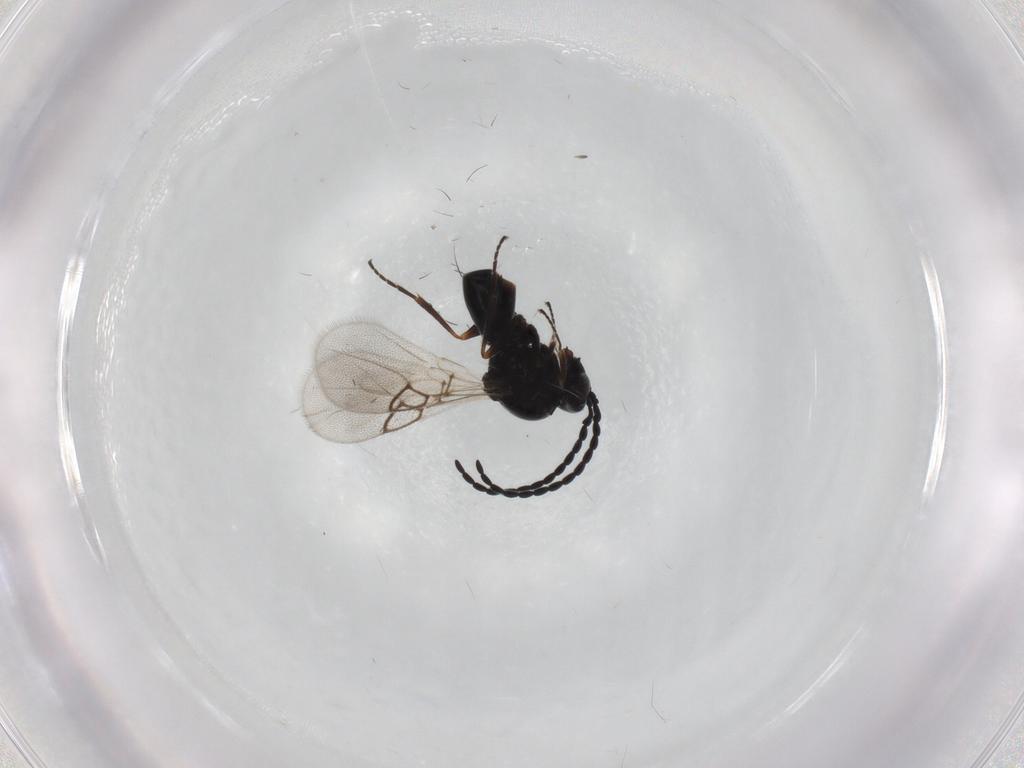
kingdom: Animalia
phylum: Arthropoda
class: Insecta
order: Hymenoptera
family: Figitidae
